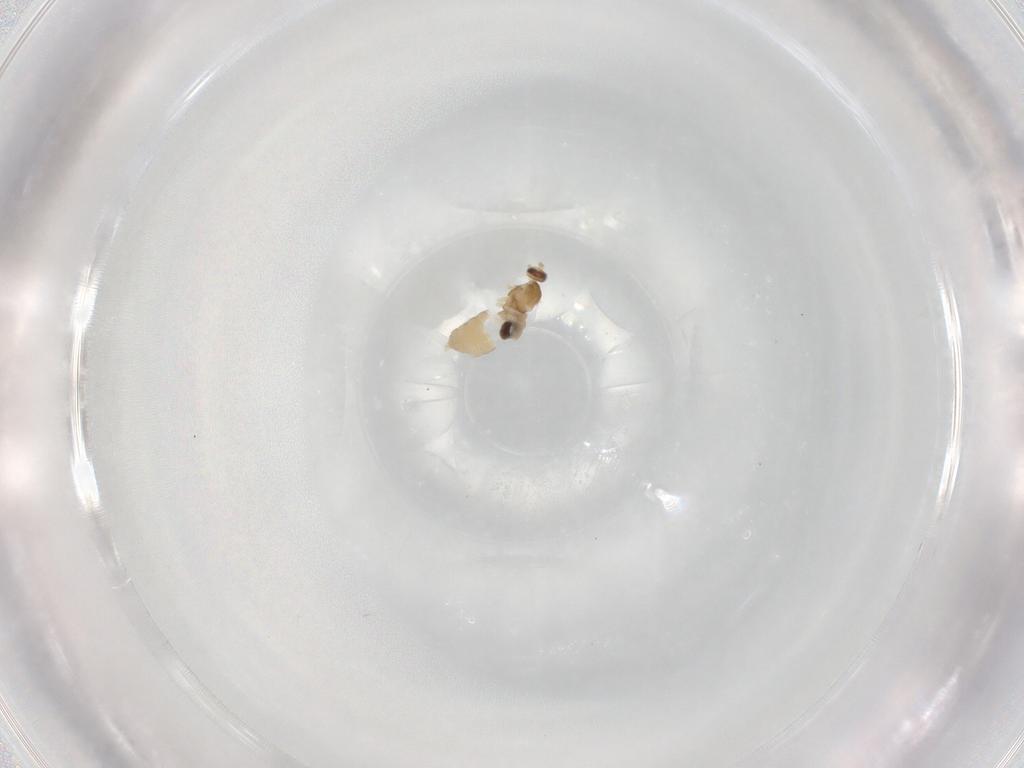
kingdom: Animalia
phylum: Arthropoda
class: Insecta
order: Diptera
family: Cecidomyiidae
